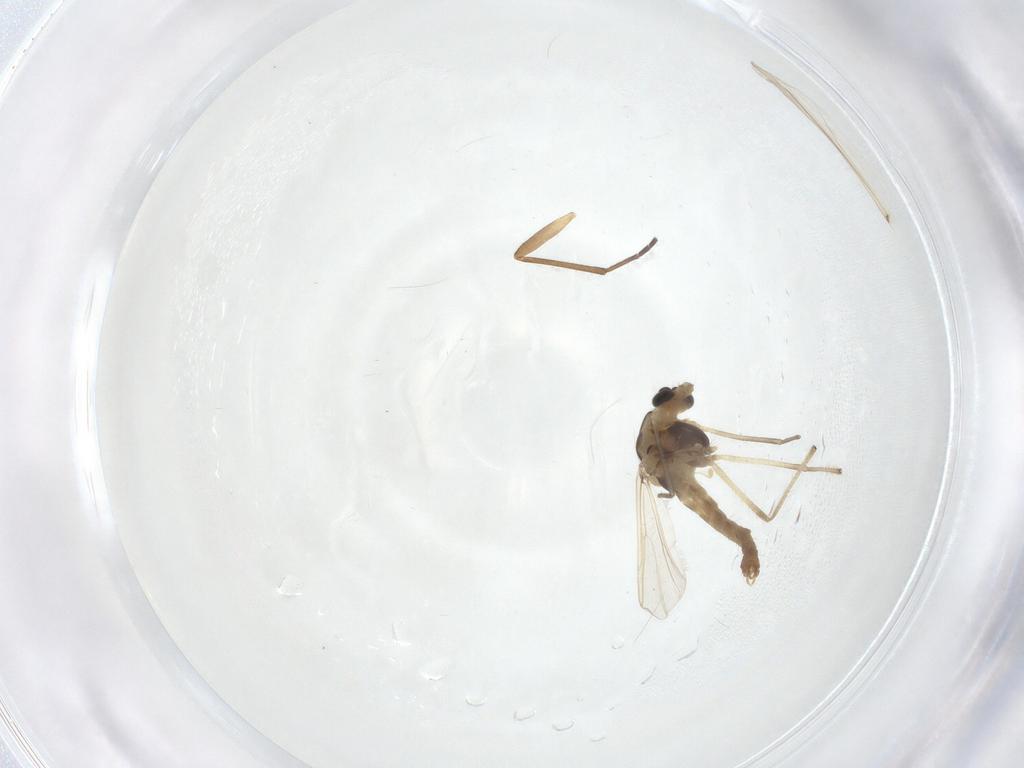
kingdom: Animalia
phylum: Arthropoda
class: Insecta
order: Diptera
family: Chironomidae
